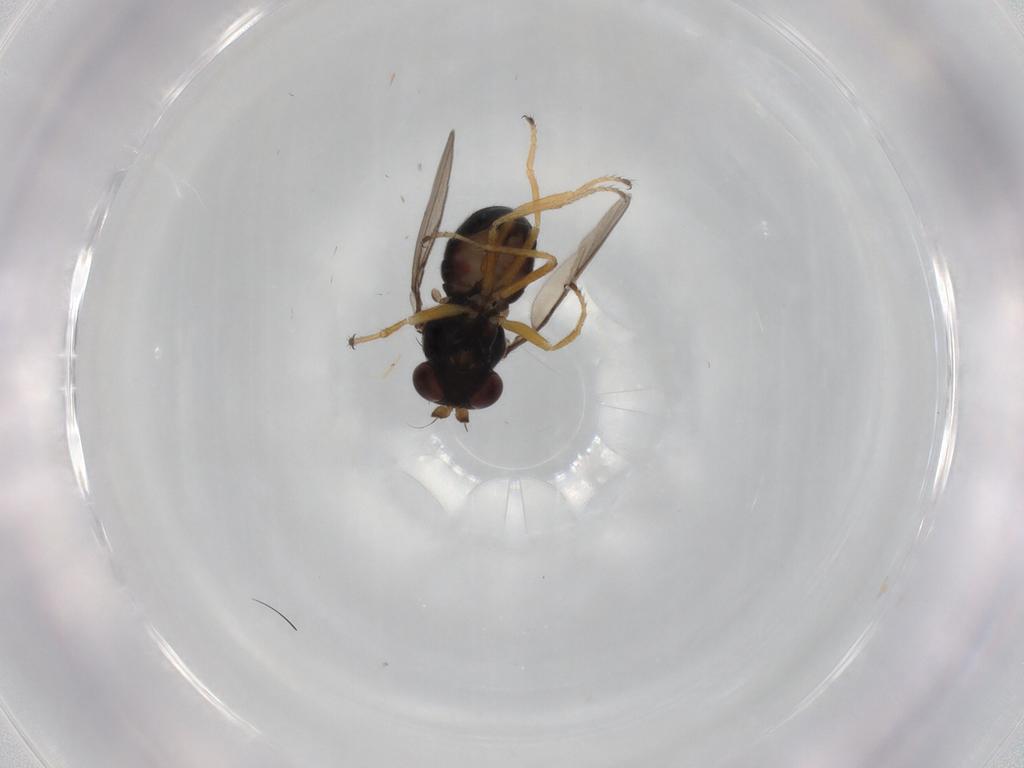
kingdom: Animalia
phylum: Arthropoda
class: Insecta
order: Diptera
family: Ephydridae
